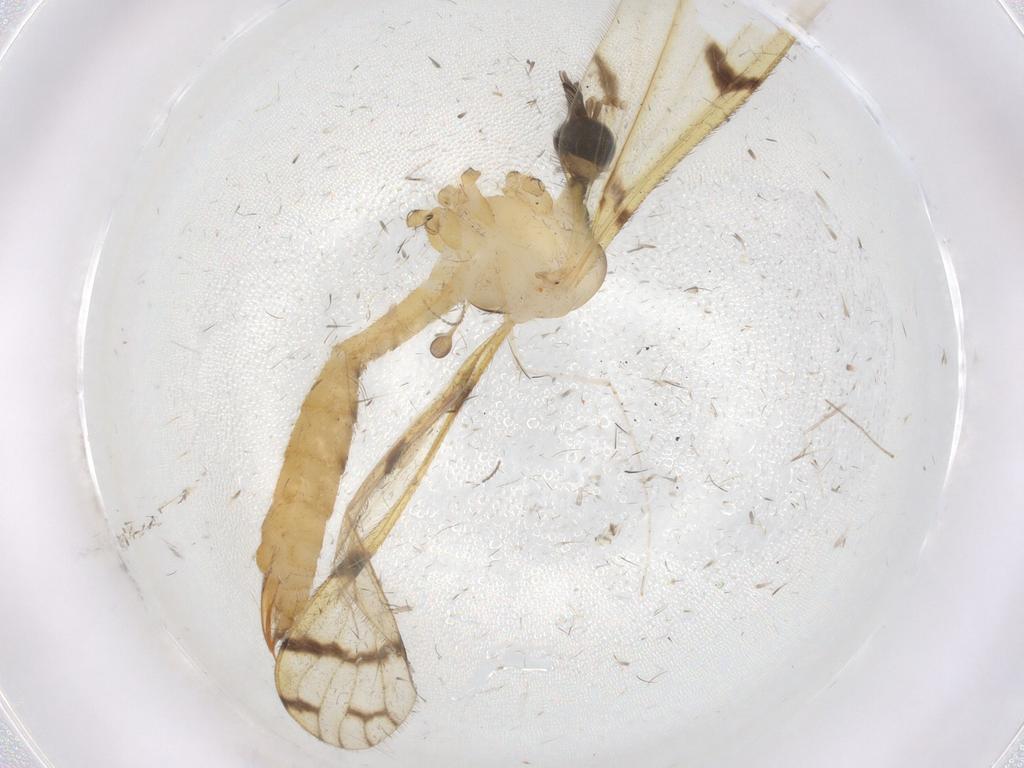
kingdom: Animalia
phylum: Arthropoda
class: Insecta
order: Diptera
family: Chironomidae
